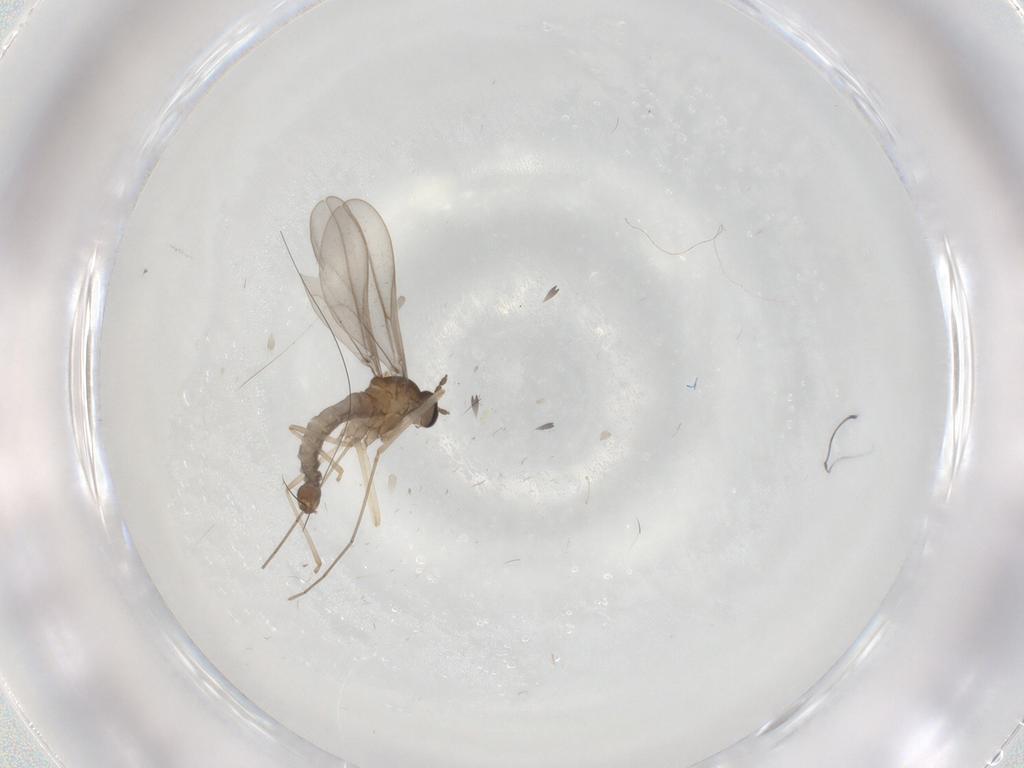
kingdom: Animalia
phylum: Arthropoda
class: Insecta
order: Diptera
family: Cecidomyiidae
